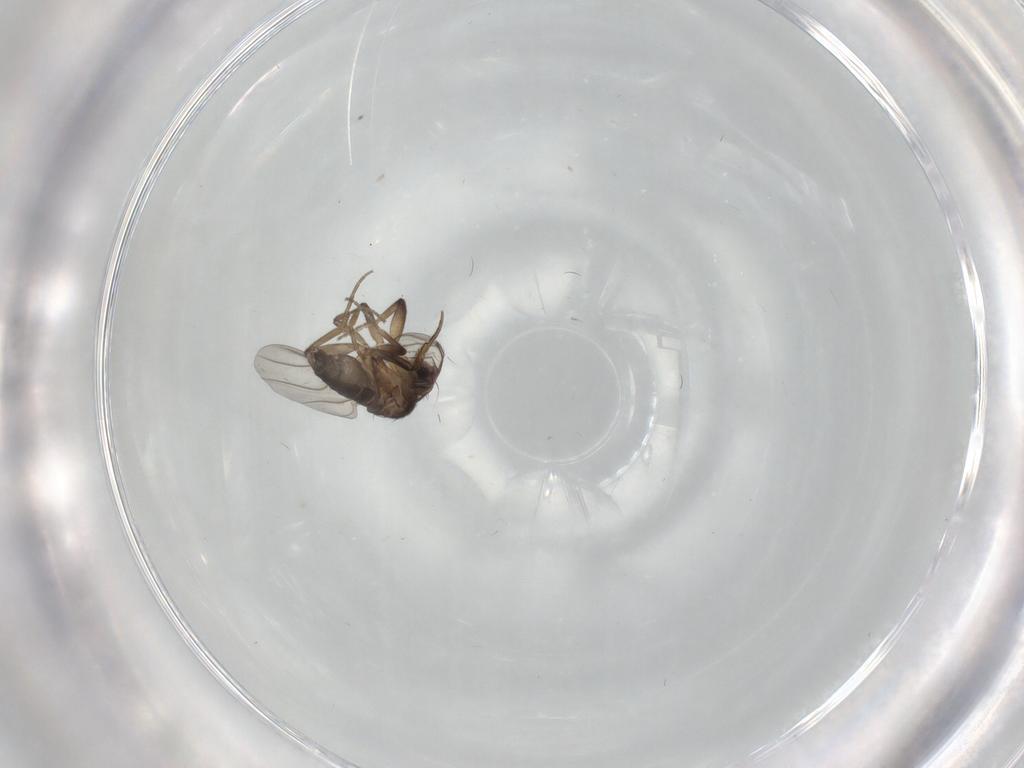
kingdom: Animalia
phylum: Arthropoda
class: Insecta
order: Diptera
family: Phoridae
